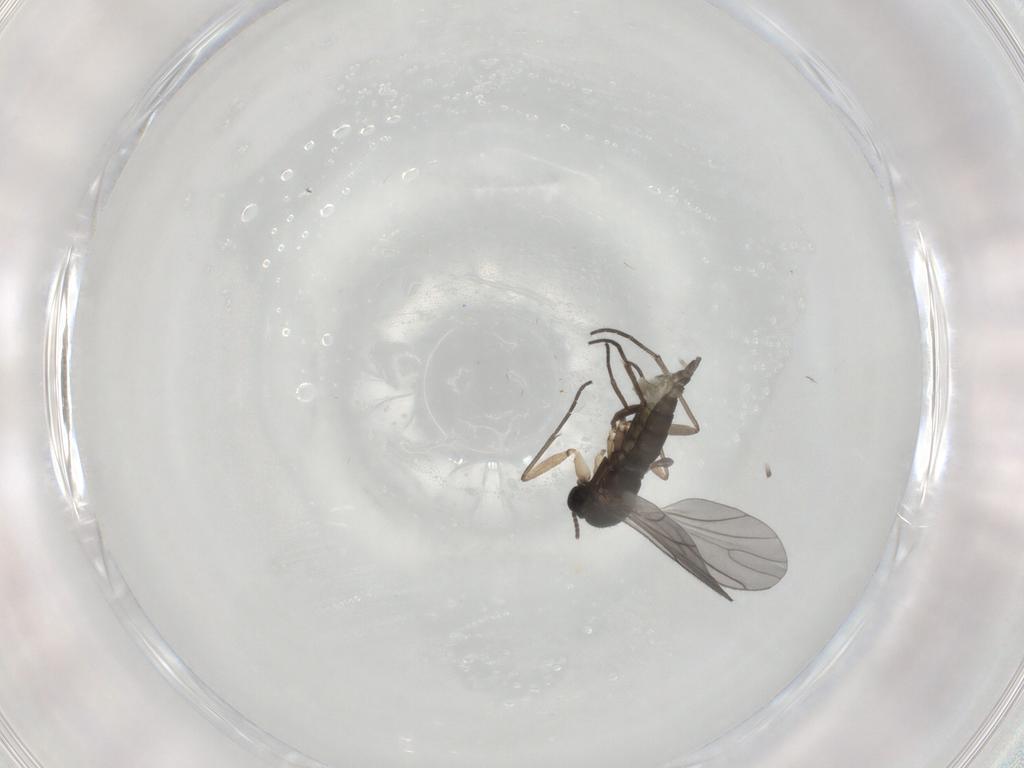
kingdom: Animalia
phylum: Arthropoda
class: Insecta
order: Diptera
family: Sciaridae
